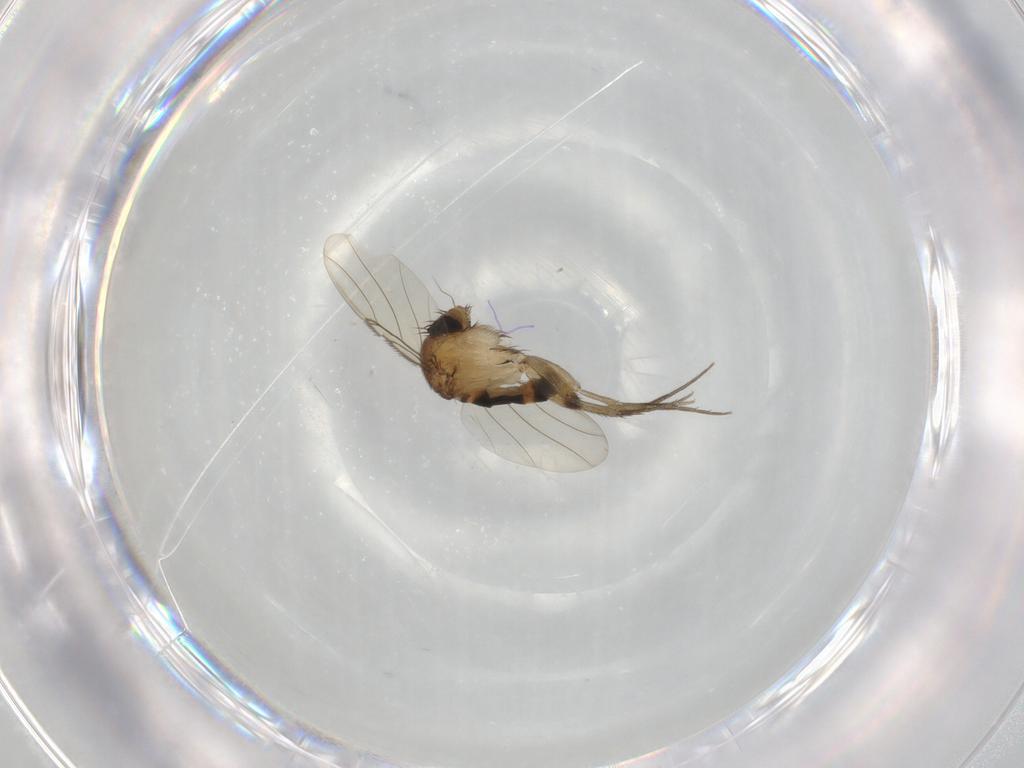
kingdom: Animalia
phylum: Arthropoda
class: Insecta
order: Diptera
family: Phoridae
